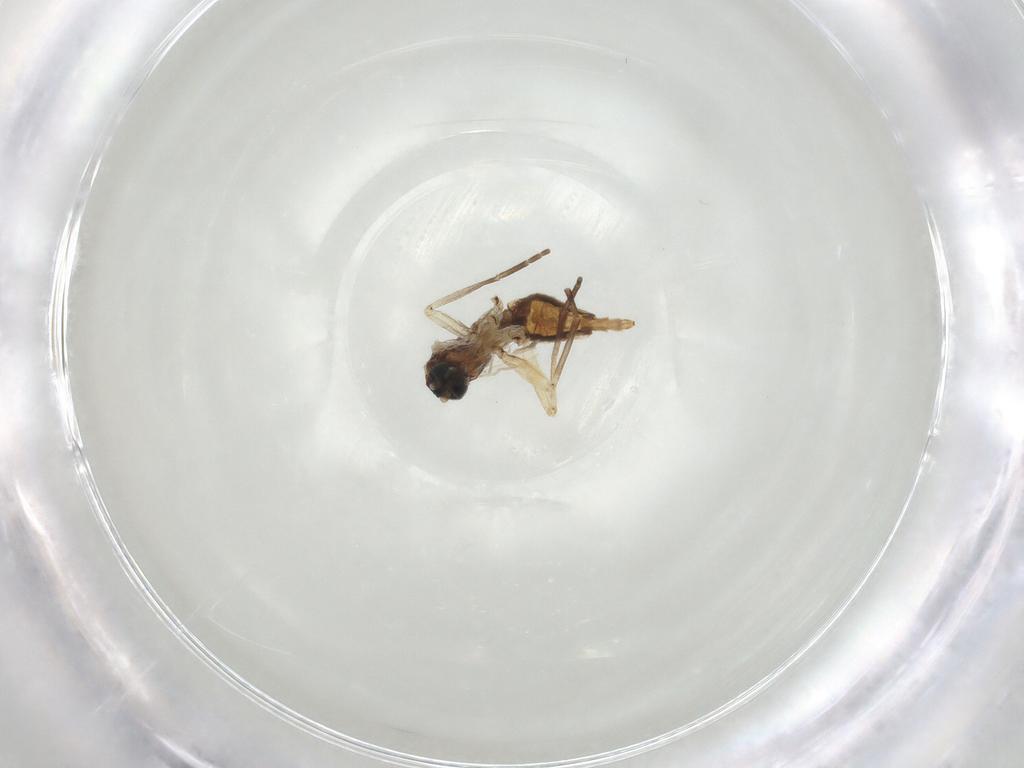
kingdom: Animalia
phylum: Arthropoda
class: Insecta
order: Diptera
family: Sciaridae
